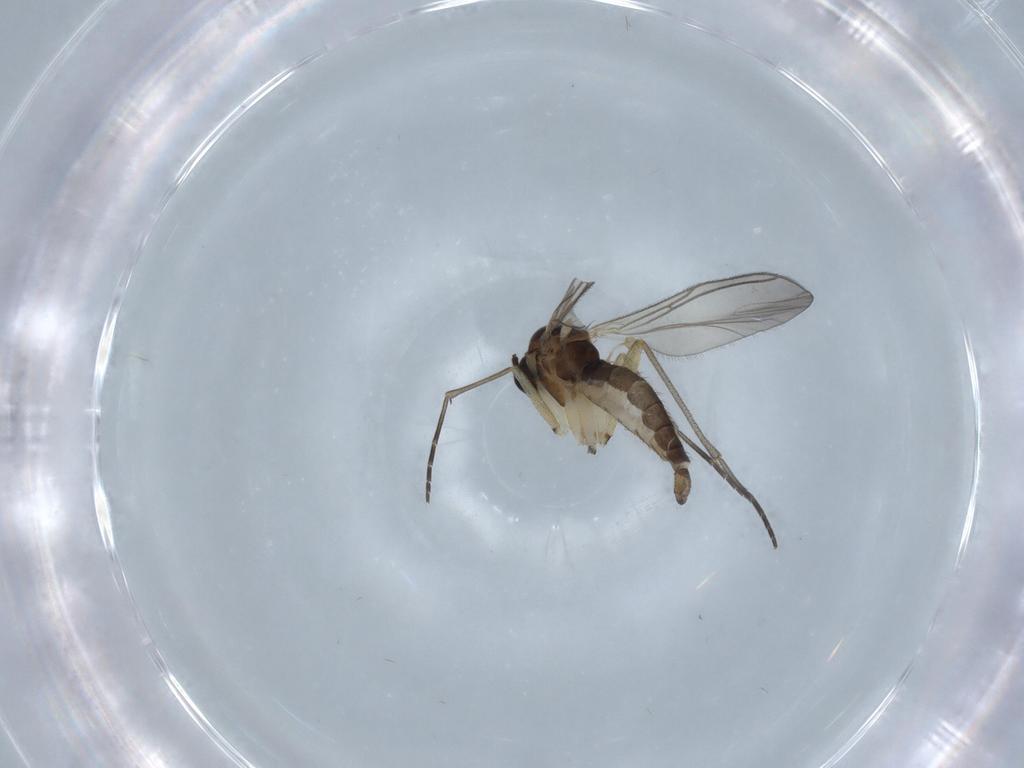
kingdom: Animalia
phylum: Arthropoda
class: Insecta
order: Diptera
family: Sciaridae
